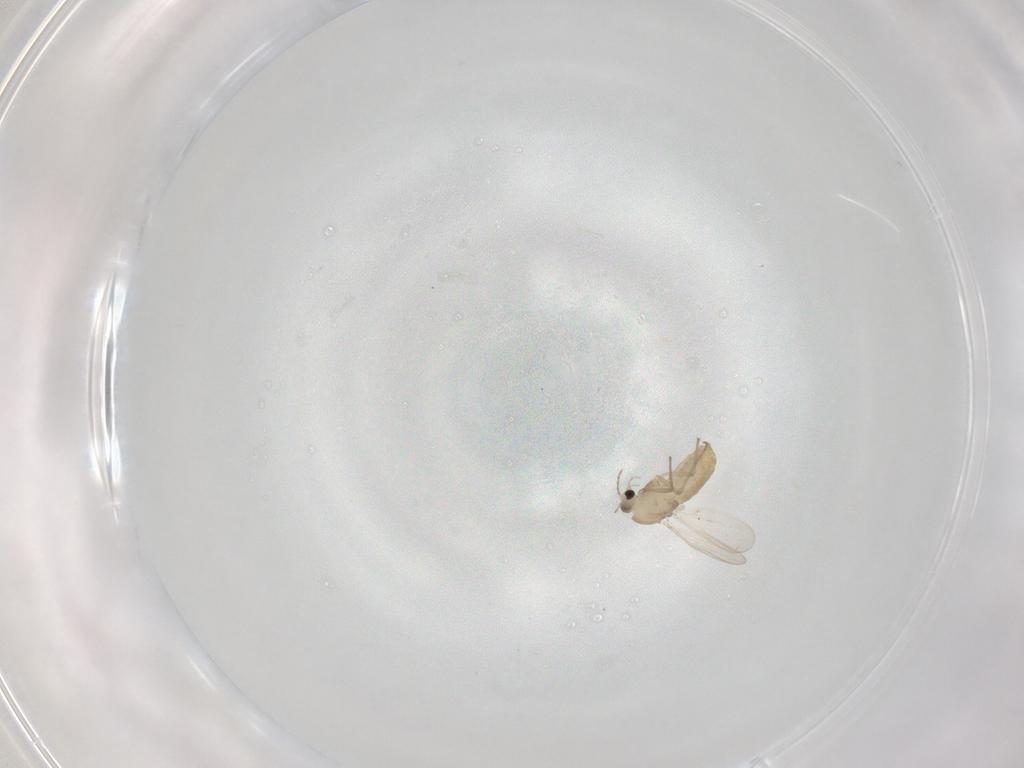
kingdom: Animalia
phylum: Arthropoda
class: Insecta
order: Diptera
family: Chironomidae
